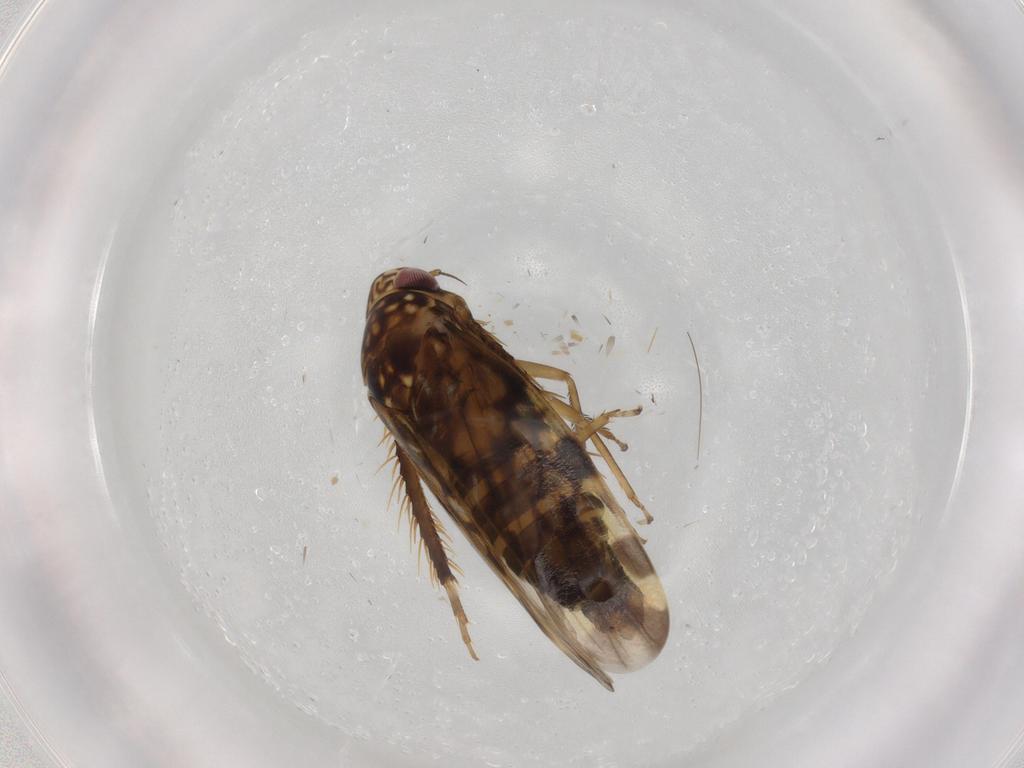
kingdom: Animalia
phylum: Arthropoda
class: Insecta
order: Hemiptera
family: Cicadellidae
